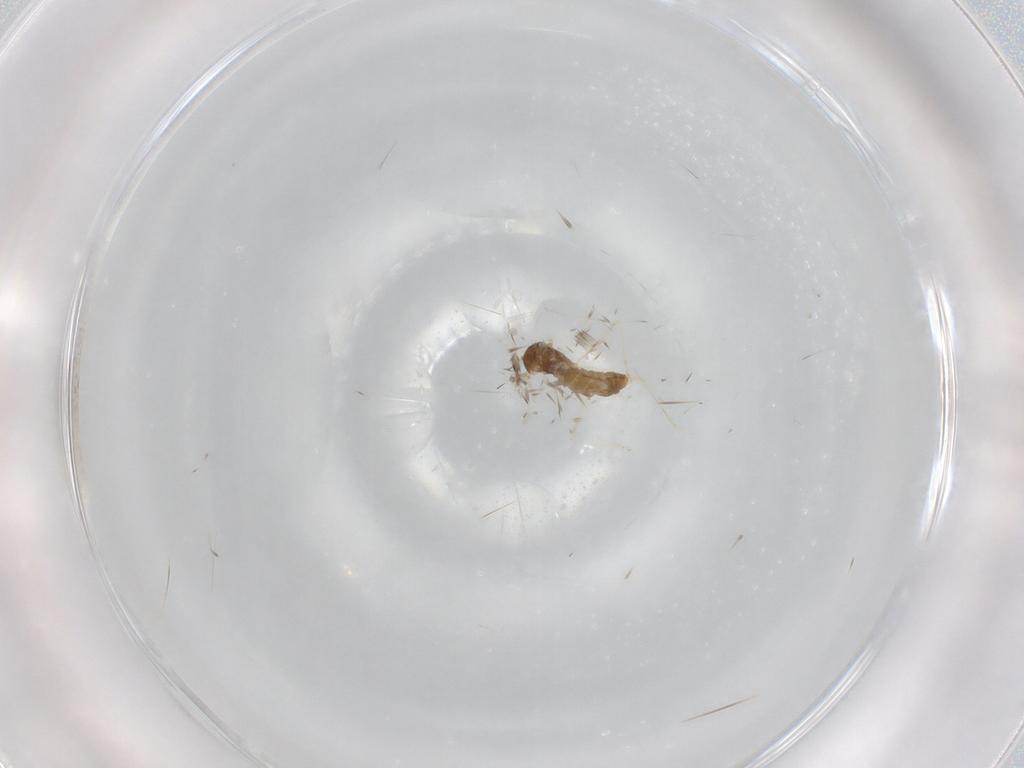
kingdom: Animalia
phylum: Arthropoda
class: Insecta
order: Diptera
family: Cecidomyiidae
